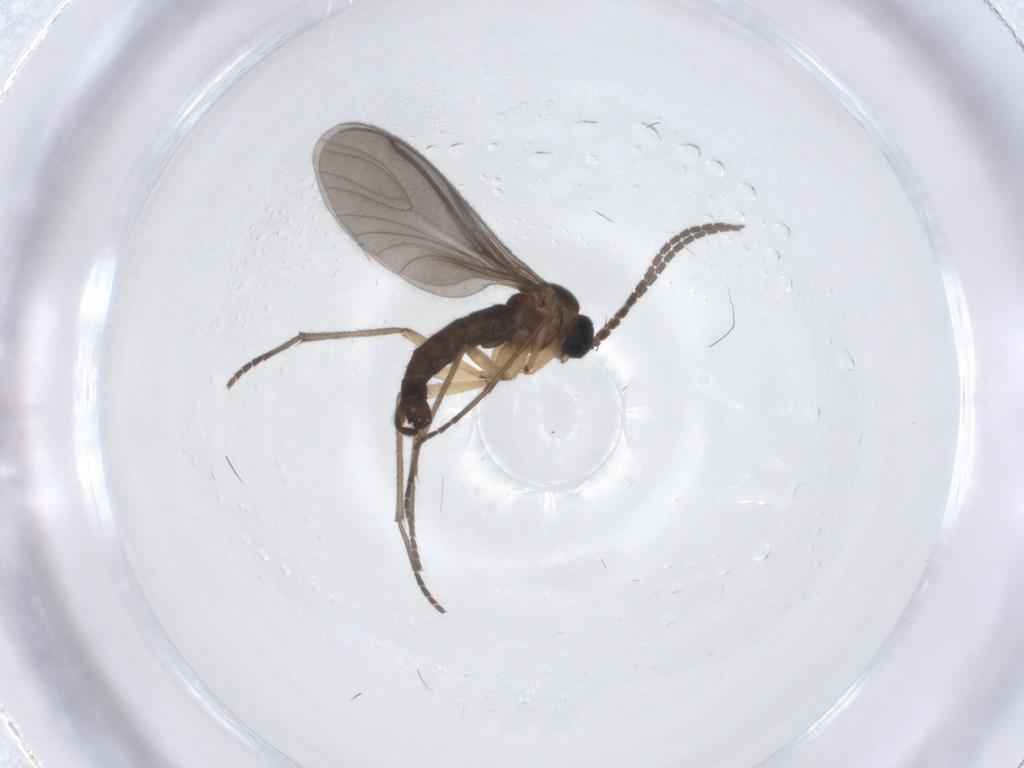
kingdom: Animalia
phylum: Arthropoda
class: Insecta
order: Diptera
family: Sciaridae
